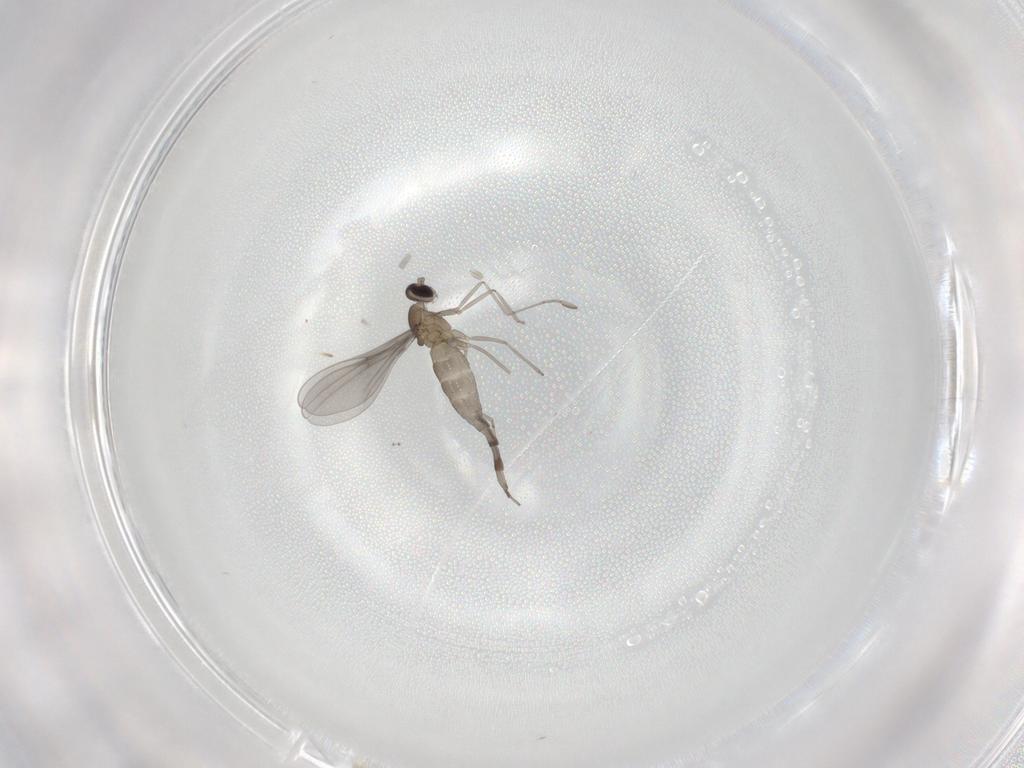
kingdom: Animalia
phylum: Arthropoda
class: Insecta
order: Diptera
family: Cecidomyiidae
